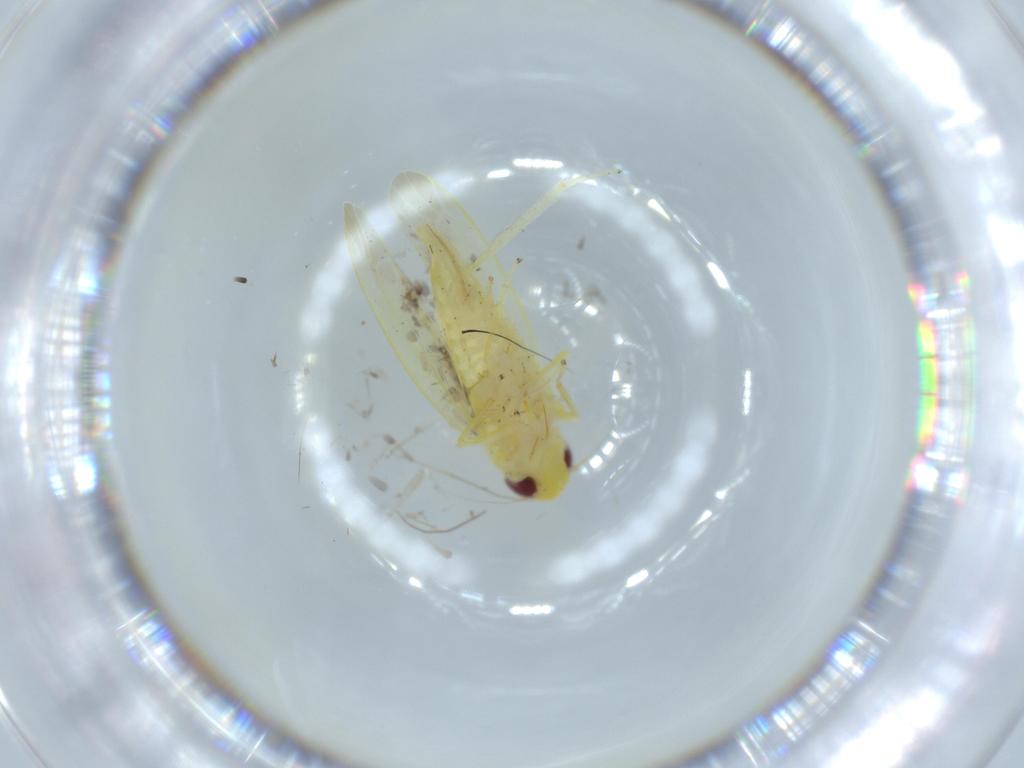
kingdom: Animalia
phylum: Arthropoda
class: Insecta
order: Hemiptera
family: Cicadellidae
